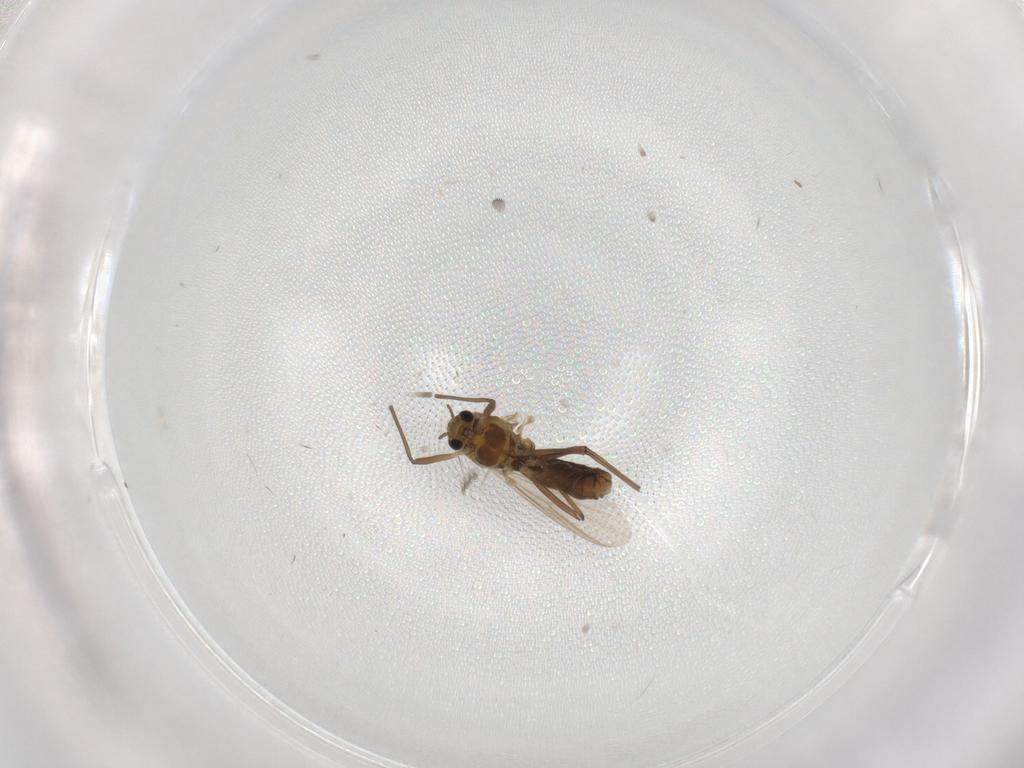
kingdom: Animalia
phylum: Arthropoda
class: Insecta
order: Diptera
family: Chironomidae
